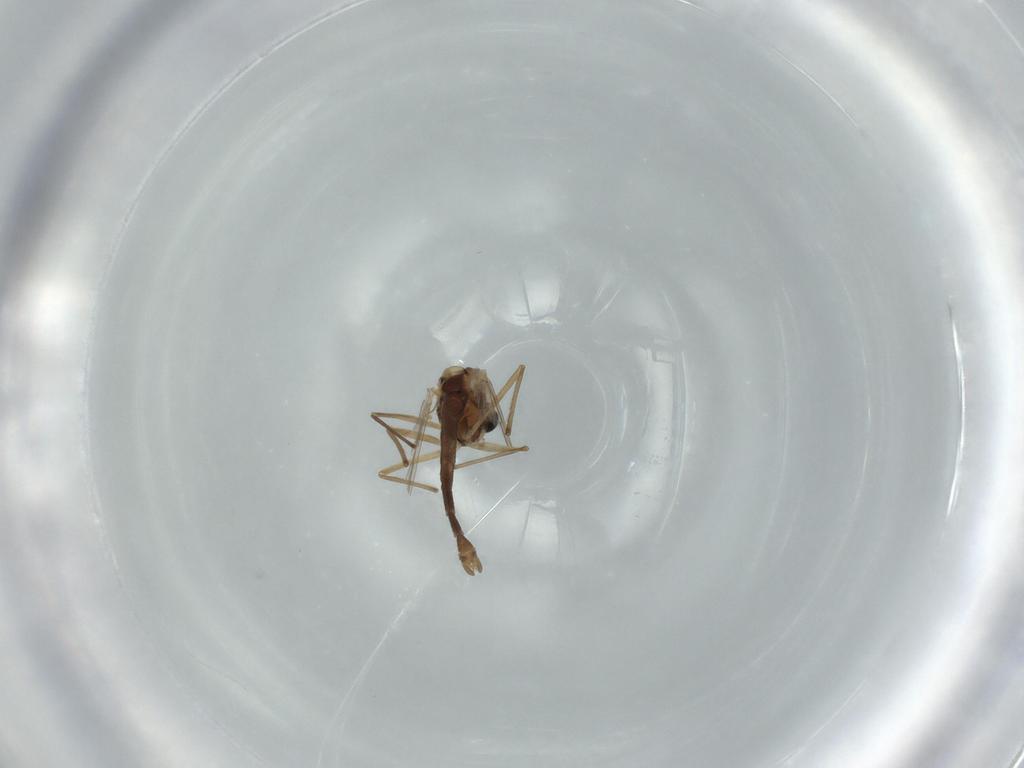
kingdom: Animalia
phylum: Arthropoda
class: Insecta
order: Diptera
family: Chironomidae
